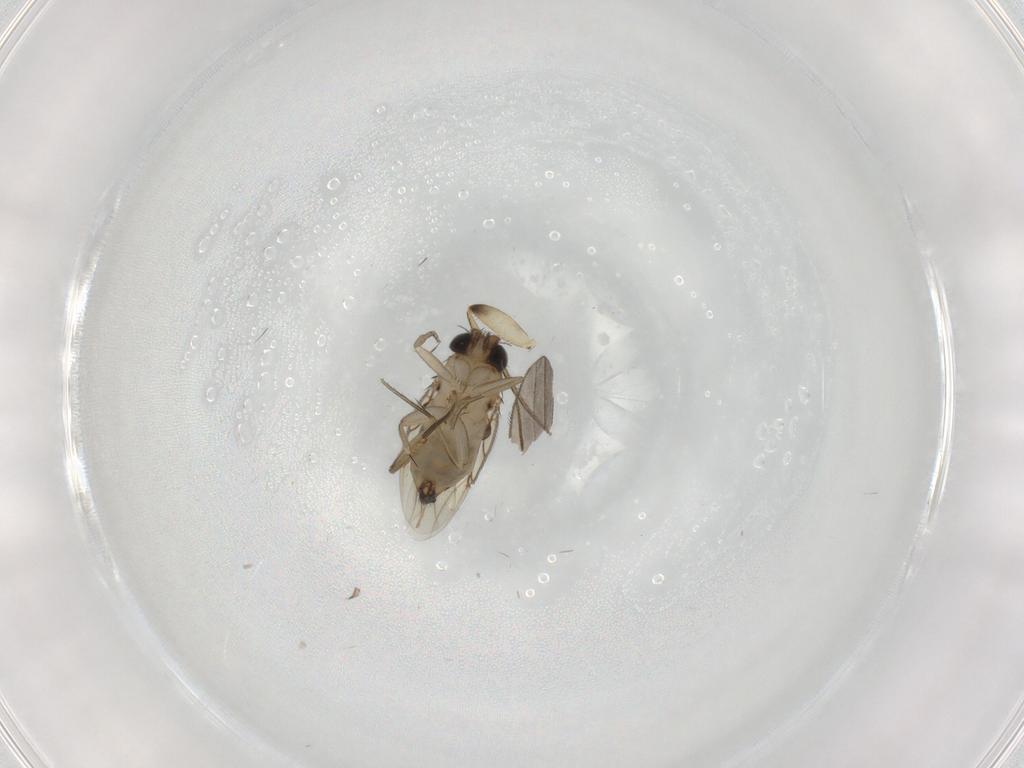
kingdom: Animalia
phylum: Arthropoda
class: Insecta
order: Diptera
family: Phoridae
